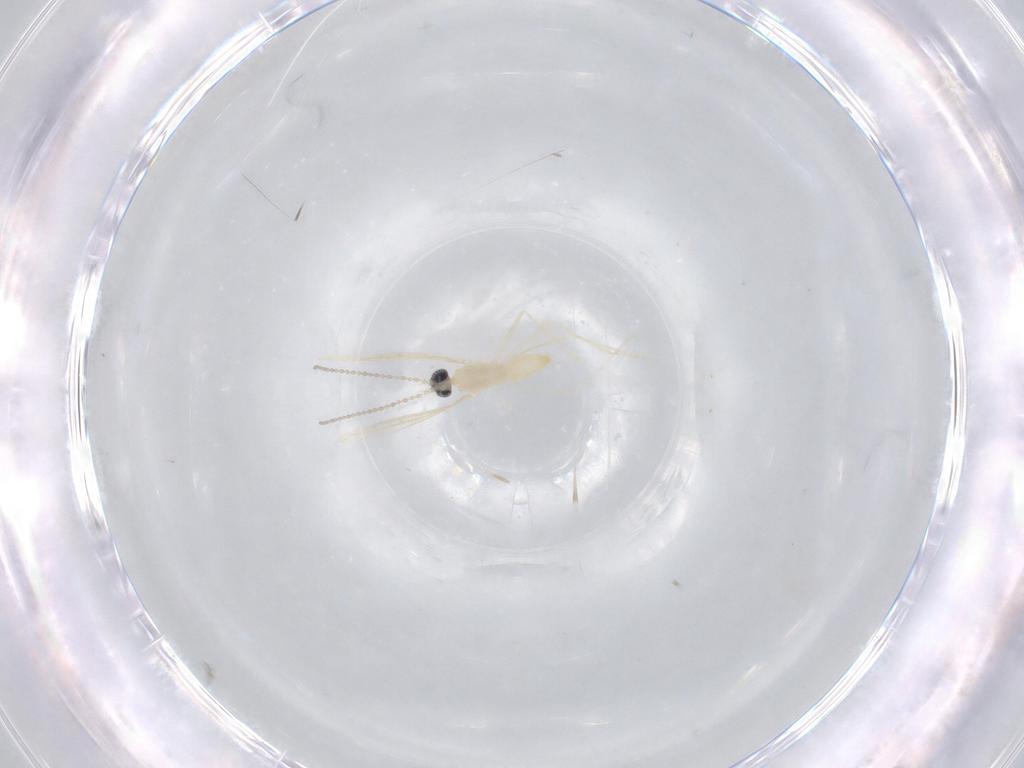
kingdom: Animalia
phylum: Arthropoda
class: Insecta
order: Diptera
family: Cecidomyiidae
